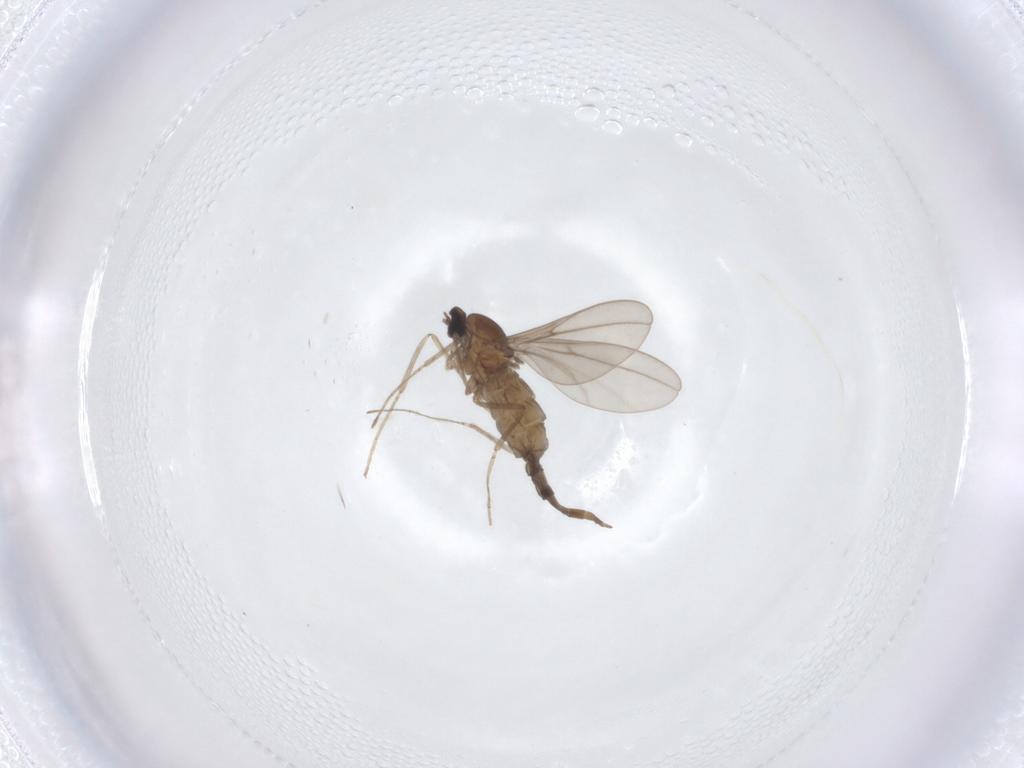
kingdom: Animalia
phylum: Arthropoda
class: Insecta
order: Diptera
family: Cecidomyiidae
